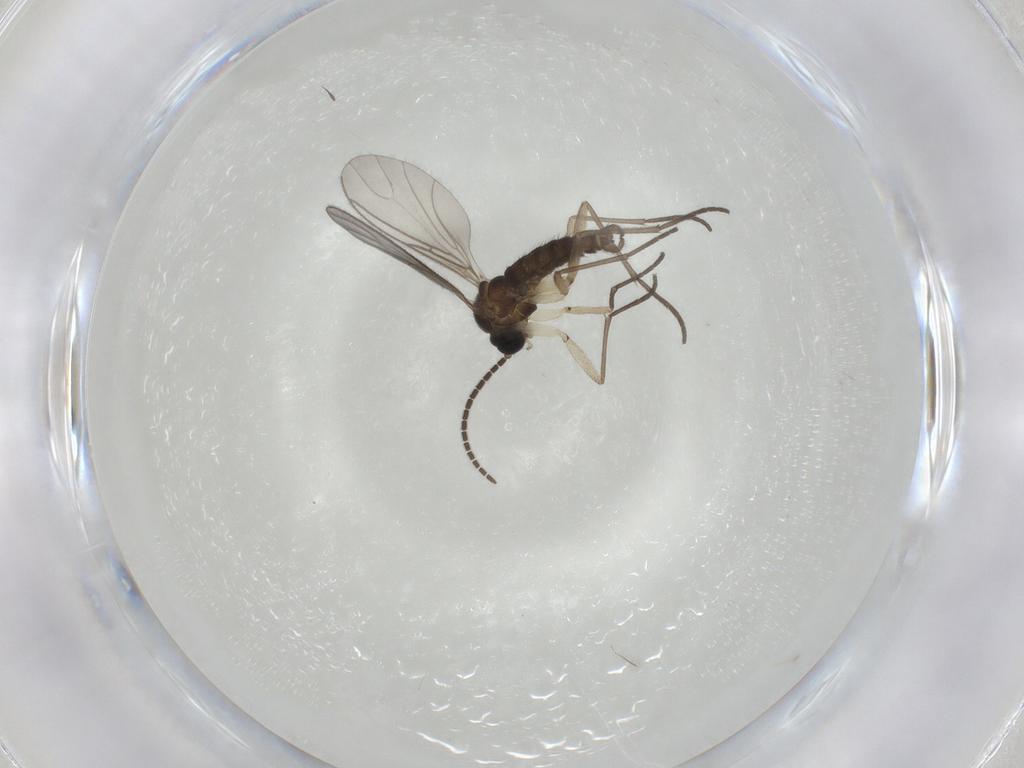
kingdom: Animalia
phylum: Arthropoda
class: Insecta
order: Diptera
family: Sciaridae
